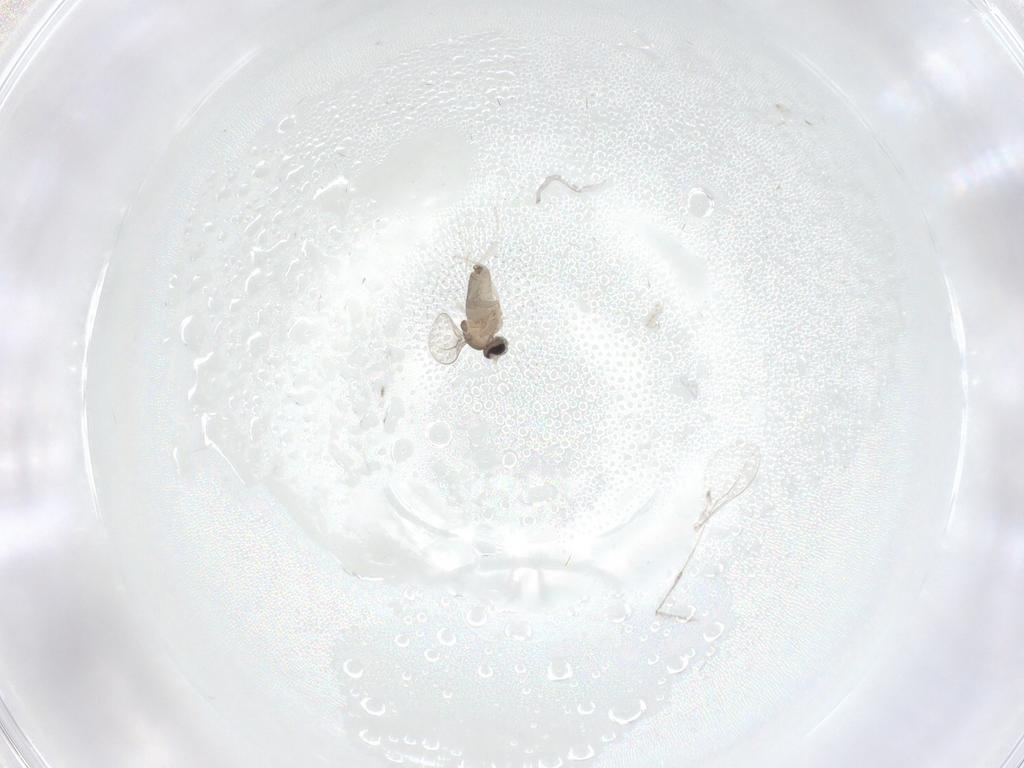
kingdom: Animalia
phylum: Arthropoda
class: Insecta
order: Diptera
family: Cecidomyiidae
